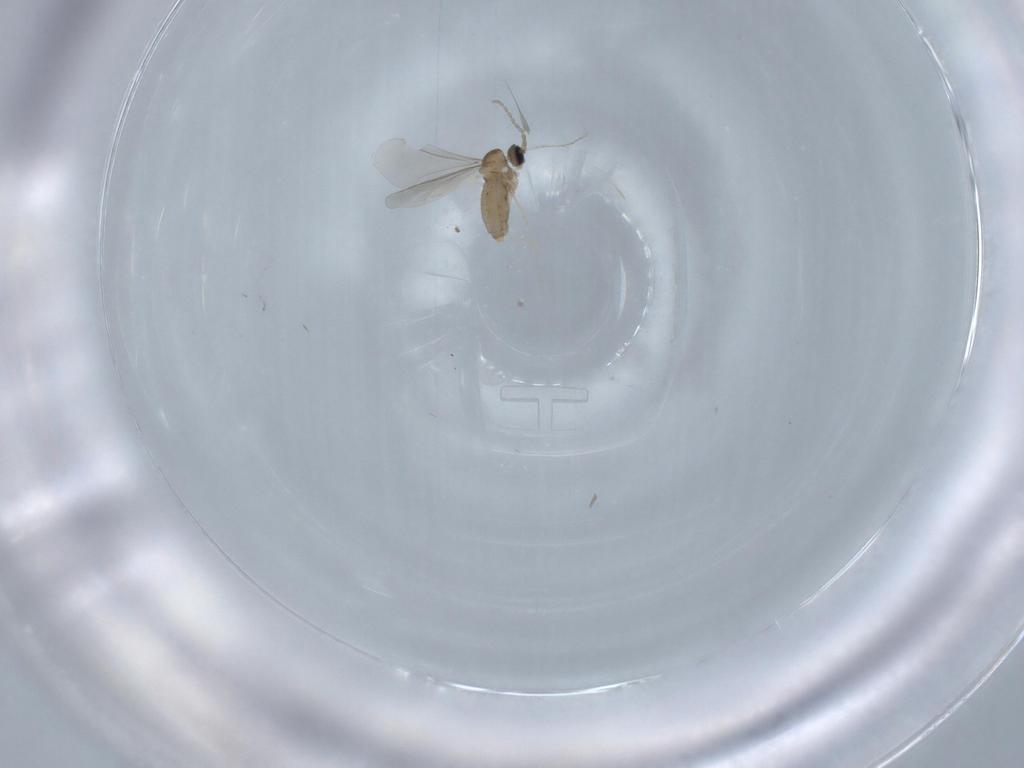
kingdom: Animalia
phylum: Arthropoda
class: Insecta
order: Diptera
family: Cecidomyiidae
